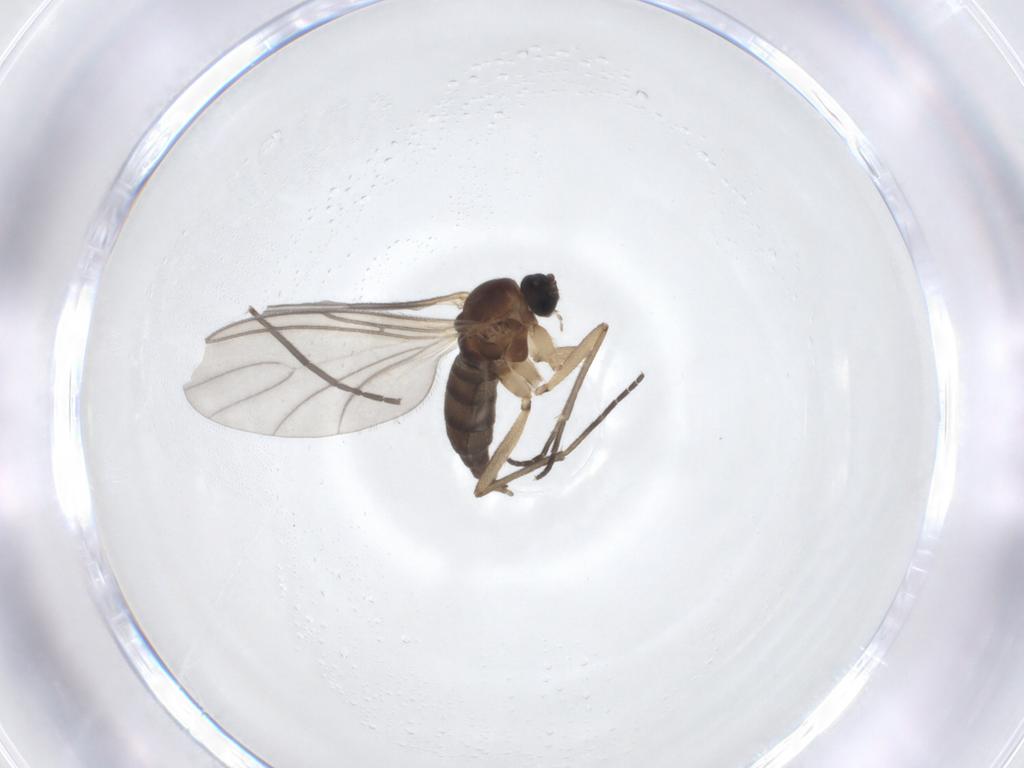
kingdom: Animalia
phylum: Arthropoda
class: Insecta
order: Diptera
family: Sciaridae
